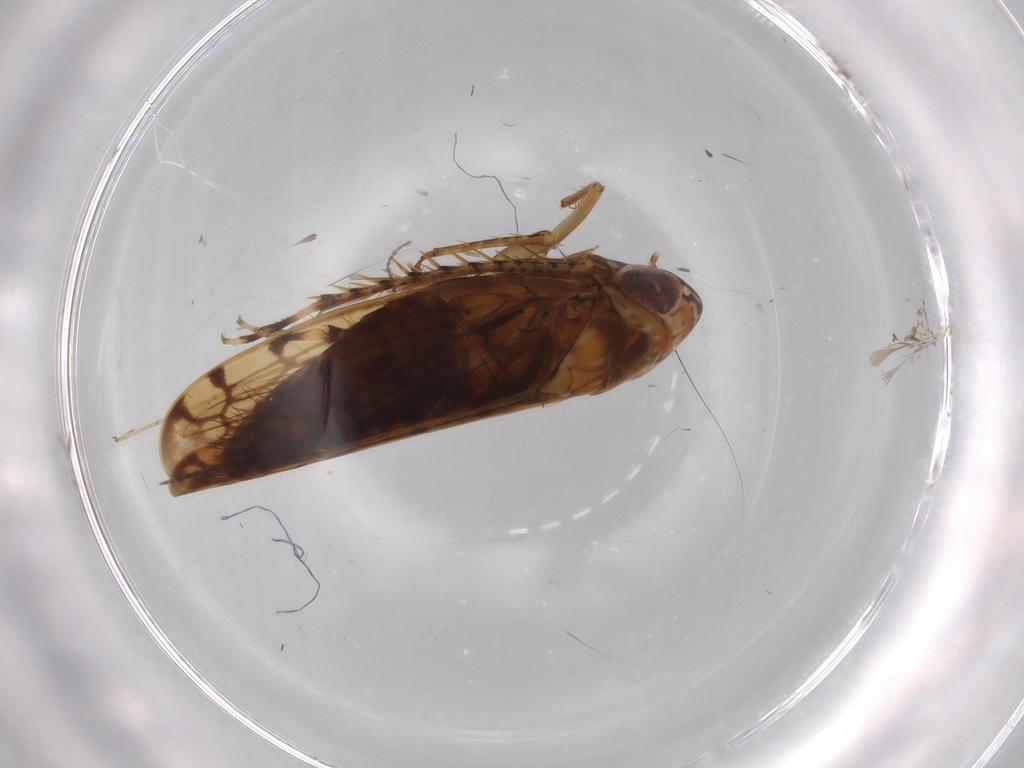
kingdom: Animalia
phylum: Arthropoda
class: Insecta
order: Hemiptera
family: Cicadellidae
